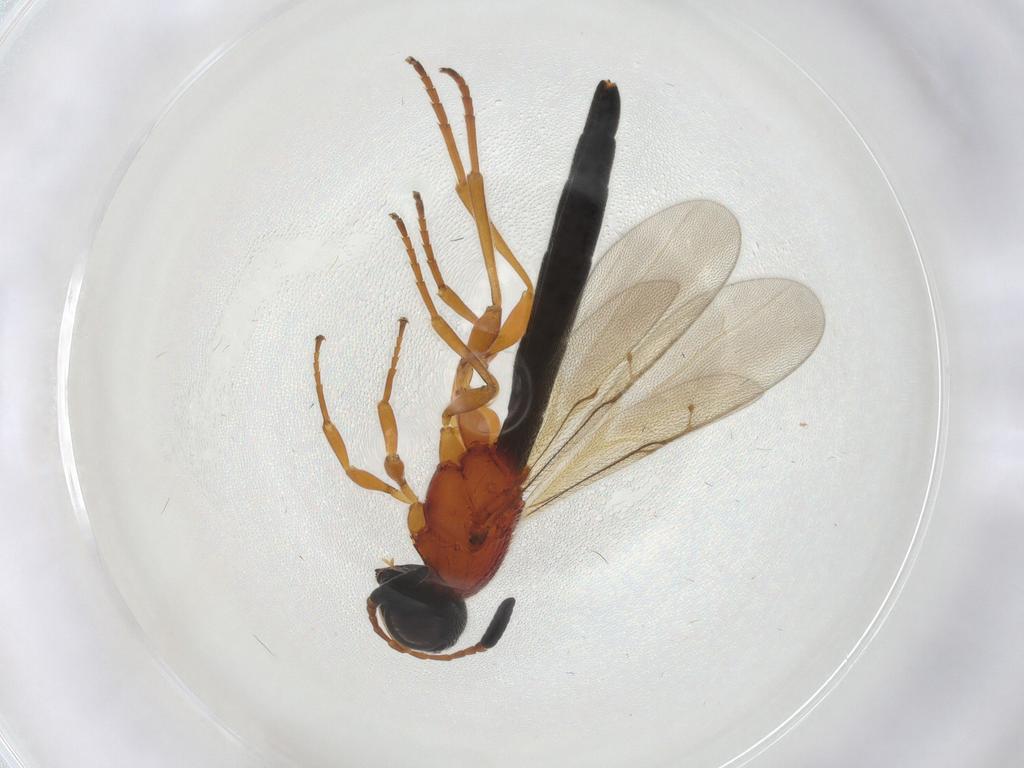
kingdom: Animalia
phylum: Arthropoda
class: Insecta
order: Hymenoptera
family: Scelionidae
